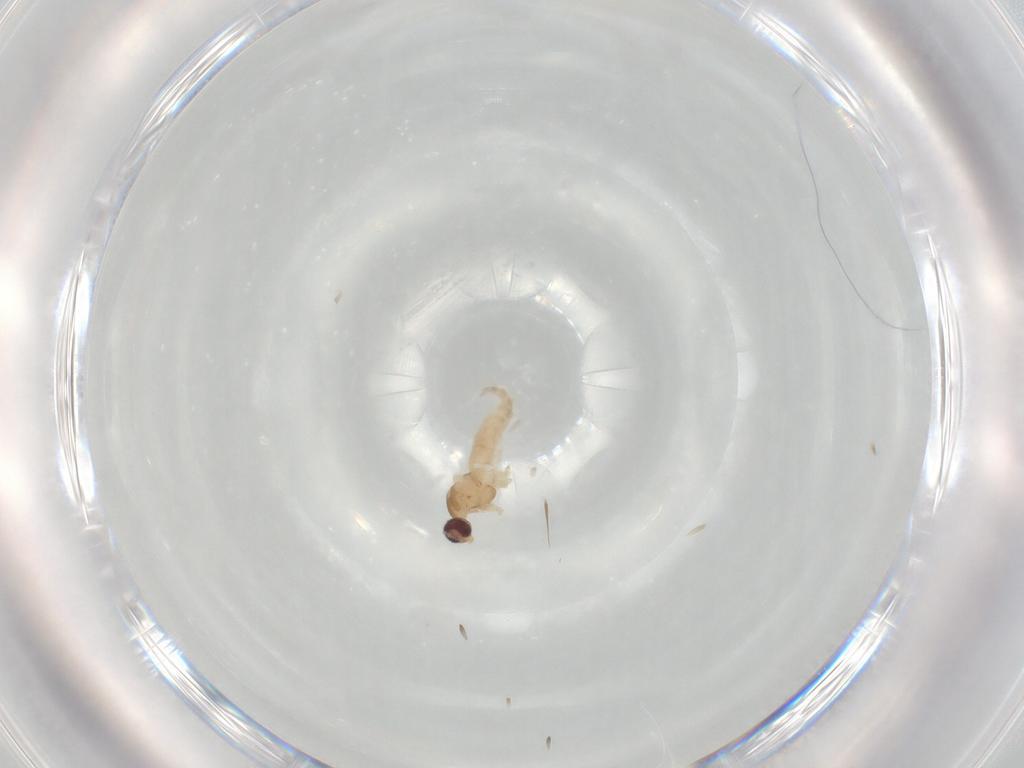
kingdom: Animalia
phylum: Arthropoda
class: Insecta
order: Diptera
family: Cecidomyiidae
